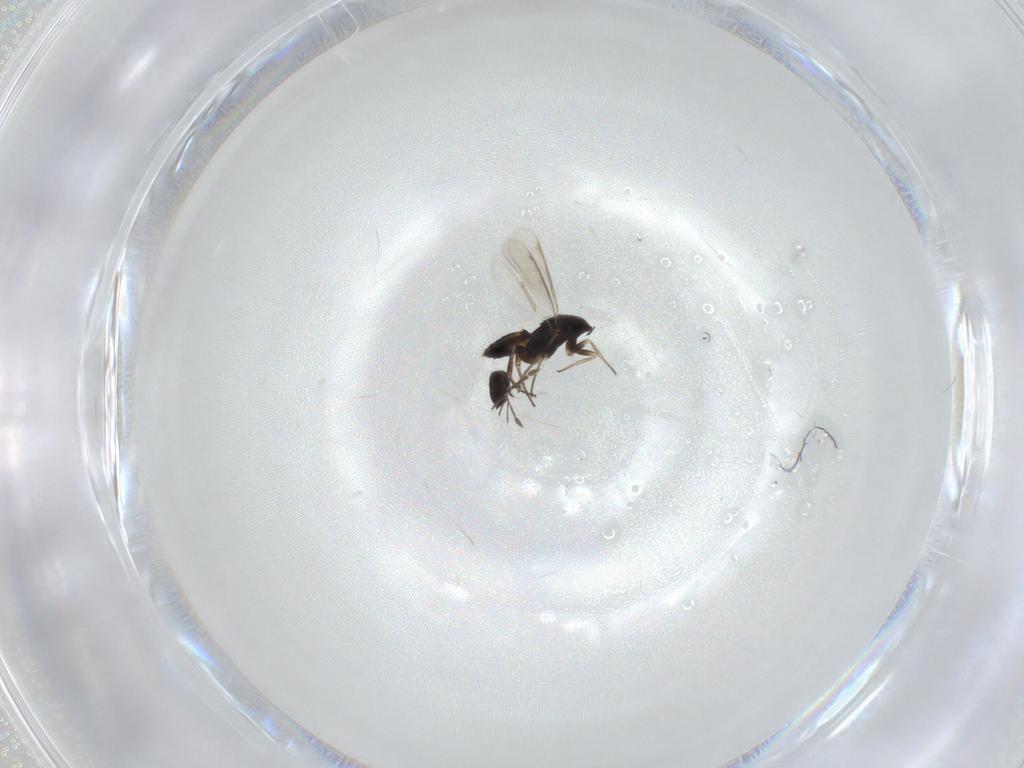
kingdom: Animalia
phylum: Arthropoda
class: Insecta
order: Hymenoptera
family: Eulophidae
